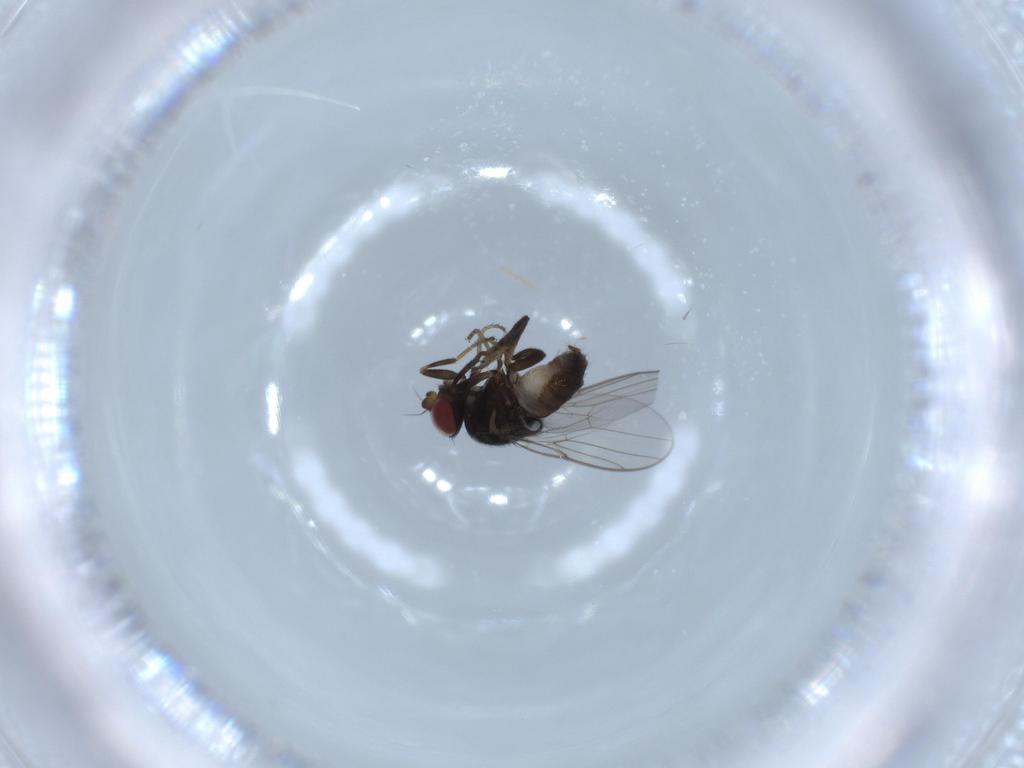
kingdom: Animalia
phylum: Arthropoda
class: Insecta
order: Diptera
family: Chloropidae
